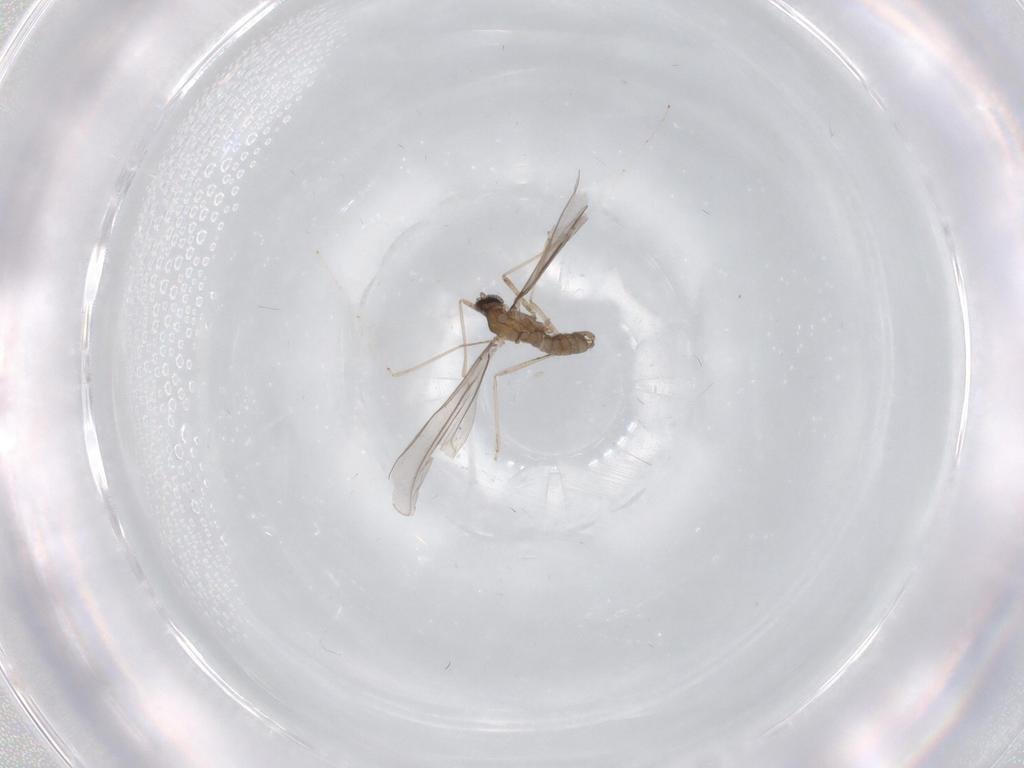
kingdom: Animalia
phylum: Arthropoda
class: Insecta
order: Diptera
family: Cecidomyiidae
